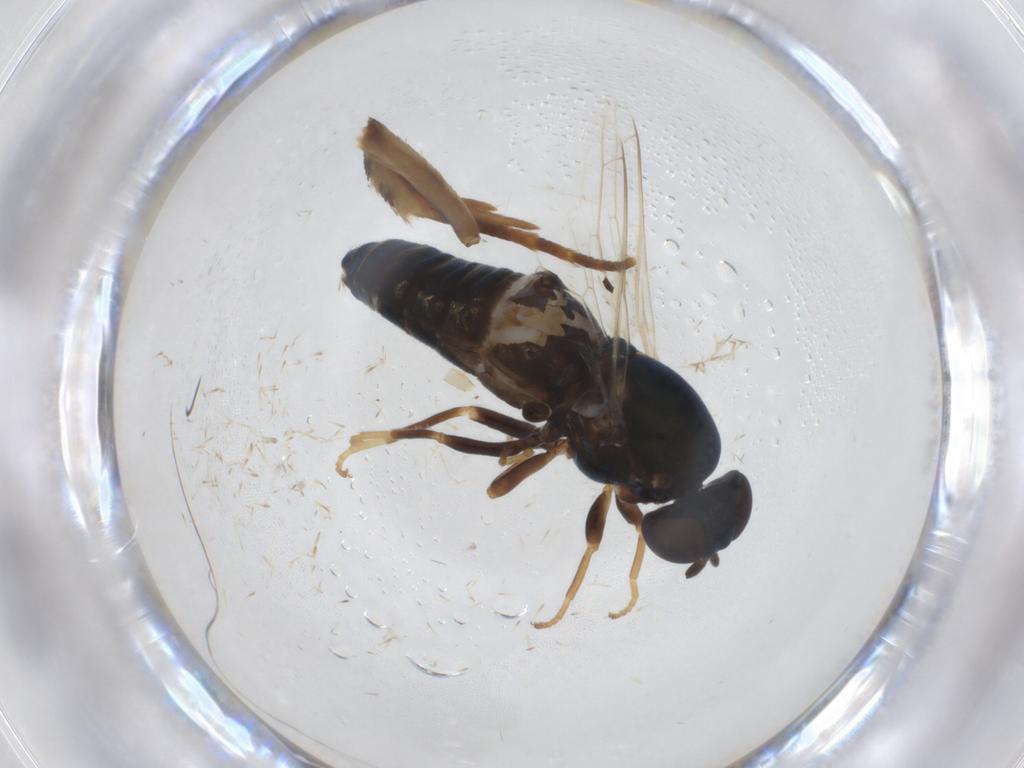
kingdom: Animalia
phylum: Arthropoda
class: Insecta
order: Diptera
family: Scenopinidae
